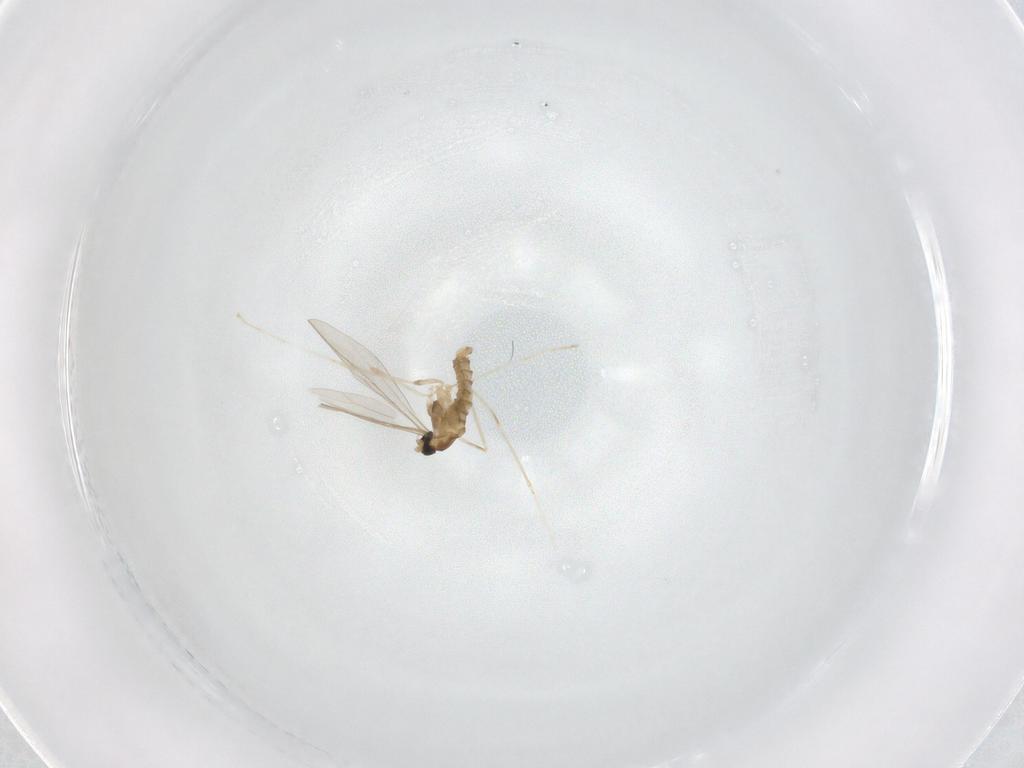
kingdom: Animalia
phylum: Arthropoda
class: Insecta
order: Diptera
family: Cecidomyiidae
